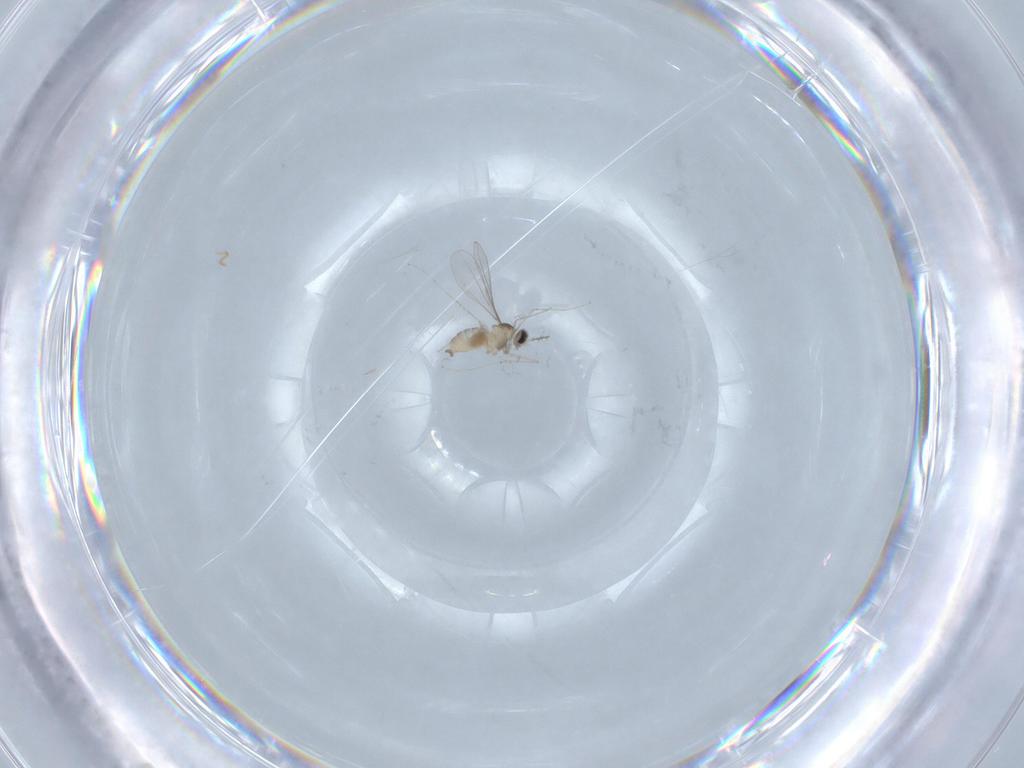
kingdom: Animalia
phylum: Arthropoda
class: Insecta
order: Diptera
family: Cecidomyiidae
